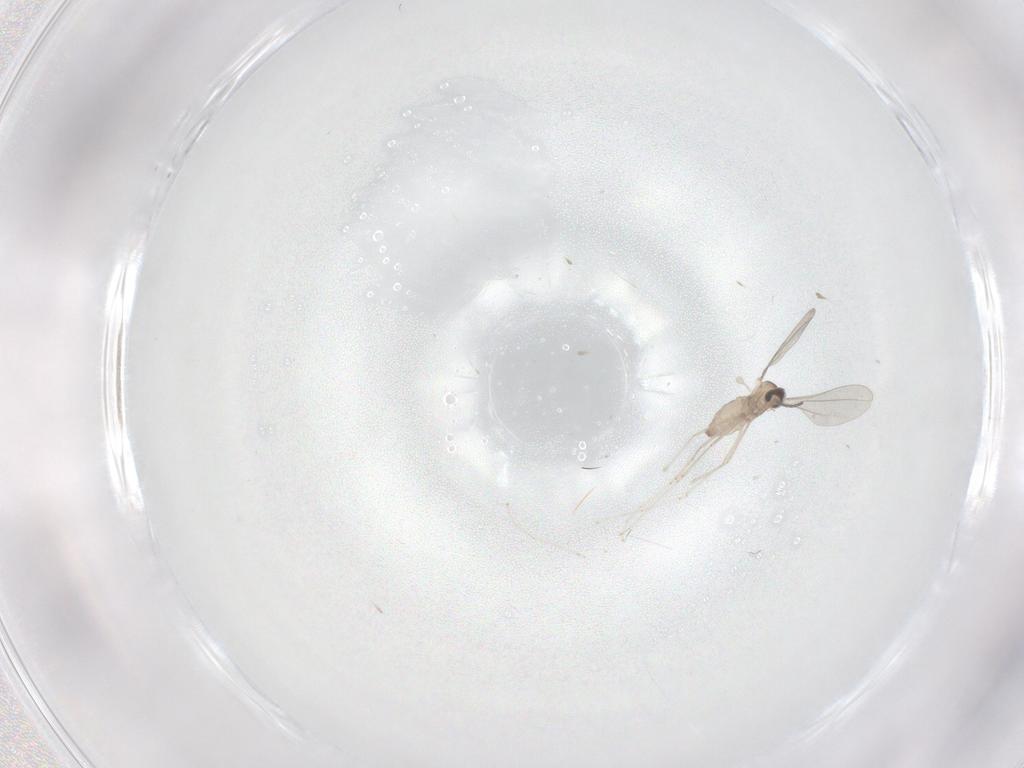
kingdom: Animalia
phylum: Arthropoda
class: Insecta
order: Diptera
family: Cecidomyiidae
